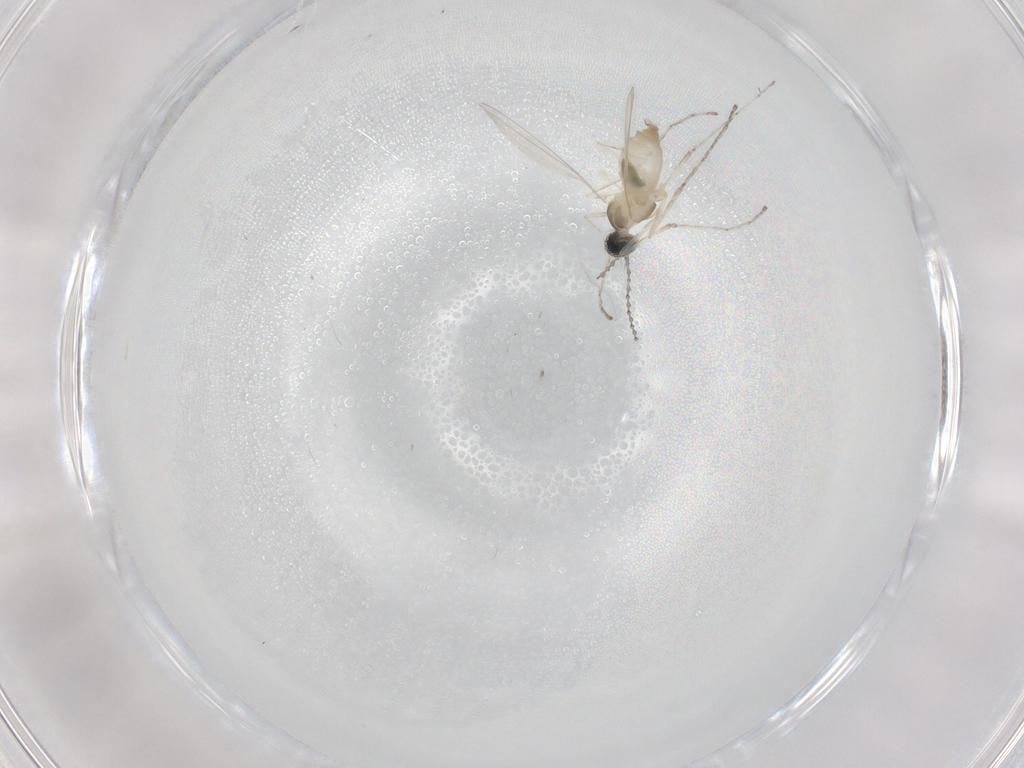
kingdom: Animalia
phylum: Arthropoda
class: Insecta
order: Diptera
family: Cecidomyiidae
